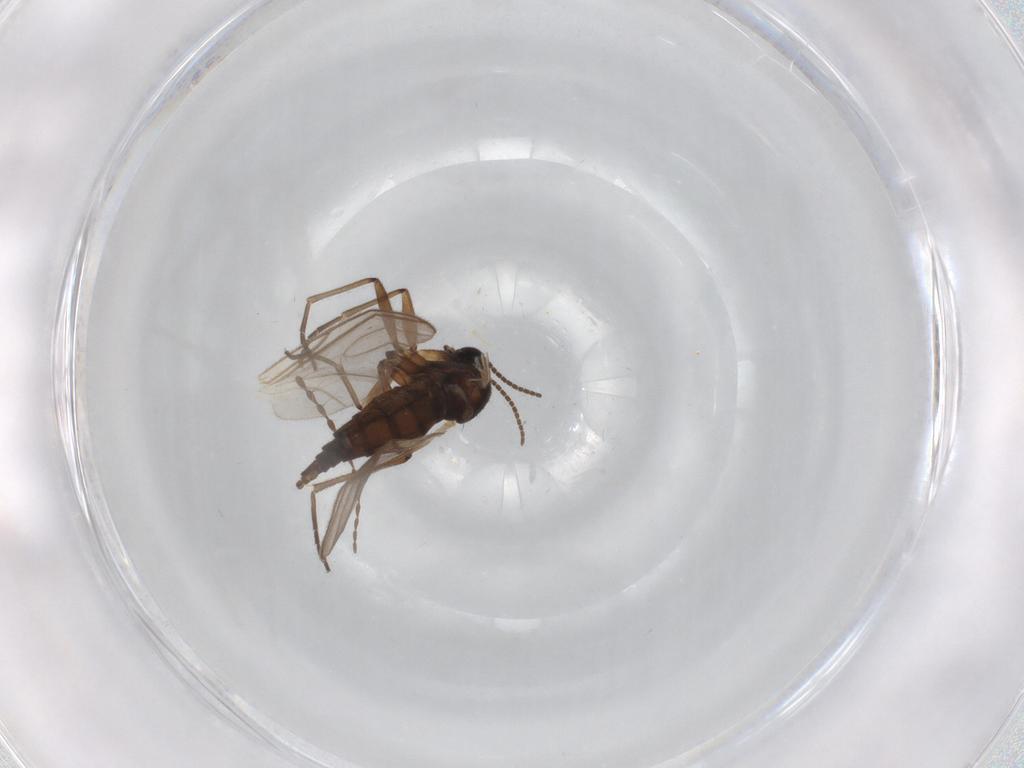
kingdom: Animalia
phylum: Arthropoda
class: Insecta
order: Diptera
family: Sciaridae
